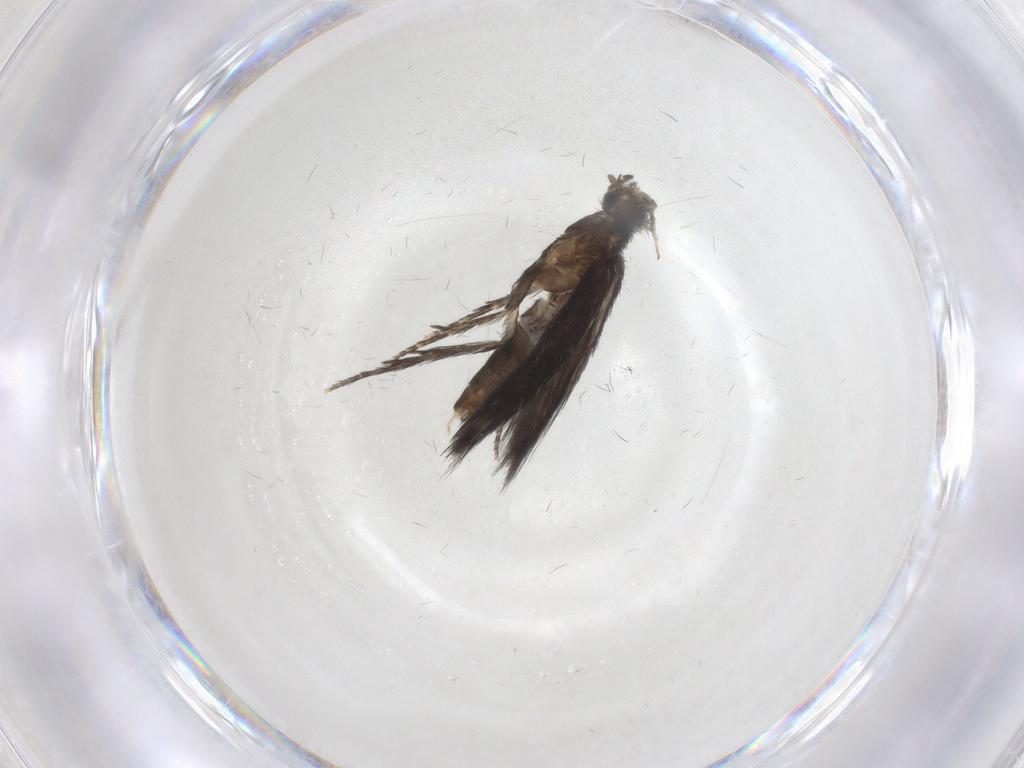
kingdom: Animalia
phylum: Arthropoda
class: Insecta
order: Trichoptera
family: Hydroptilidae
